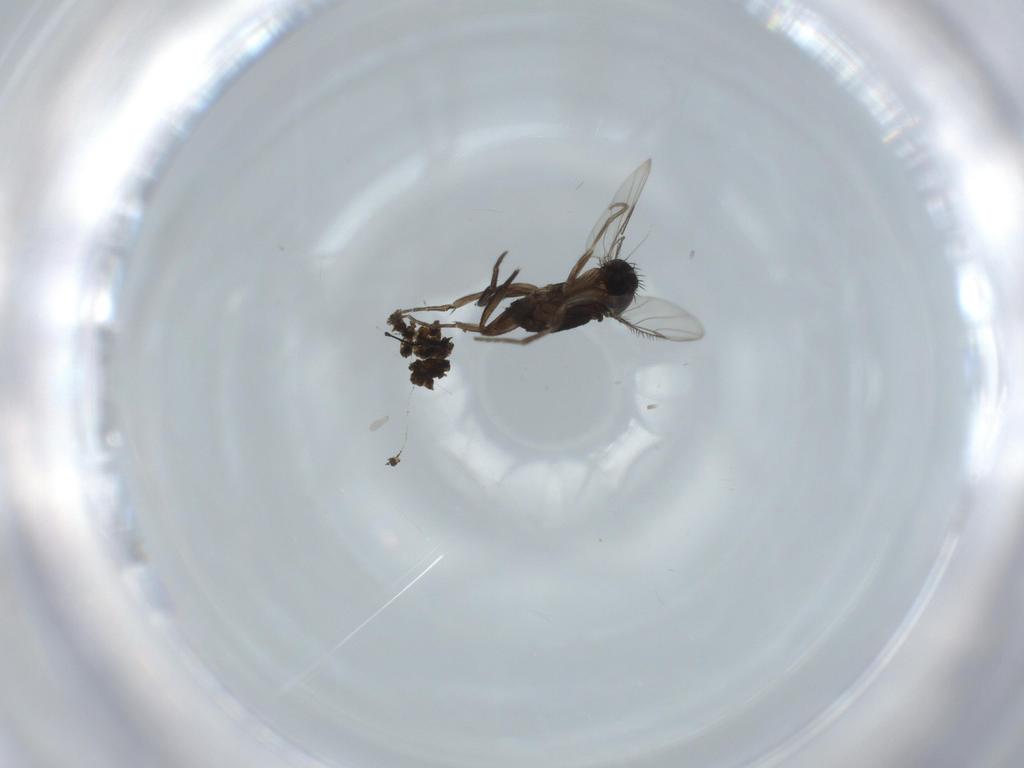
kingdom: Animalia
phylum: Arthropoda
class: Insecta
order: Diptera
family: Phoridae
